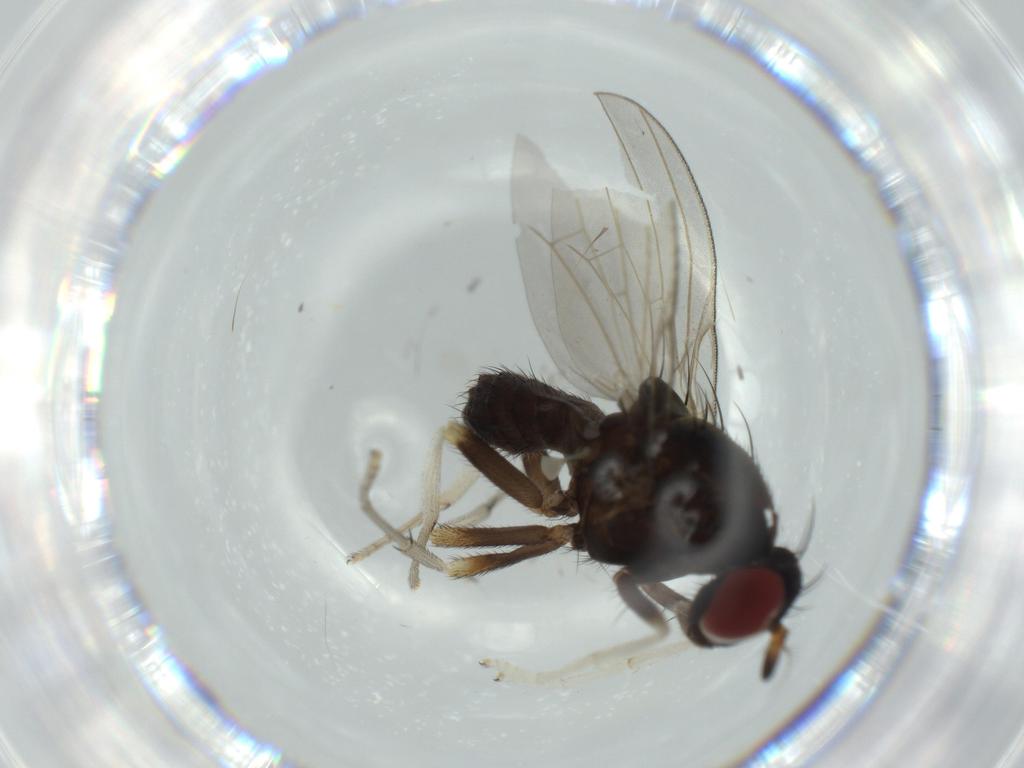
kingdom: Animalia
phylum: Arthropoda
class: Insecta
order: Diptera
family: Lauxaniidae
